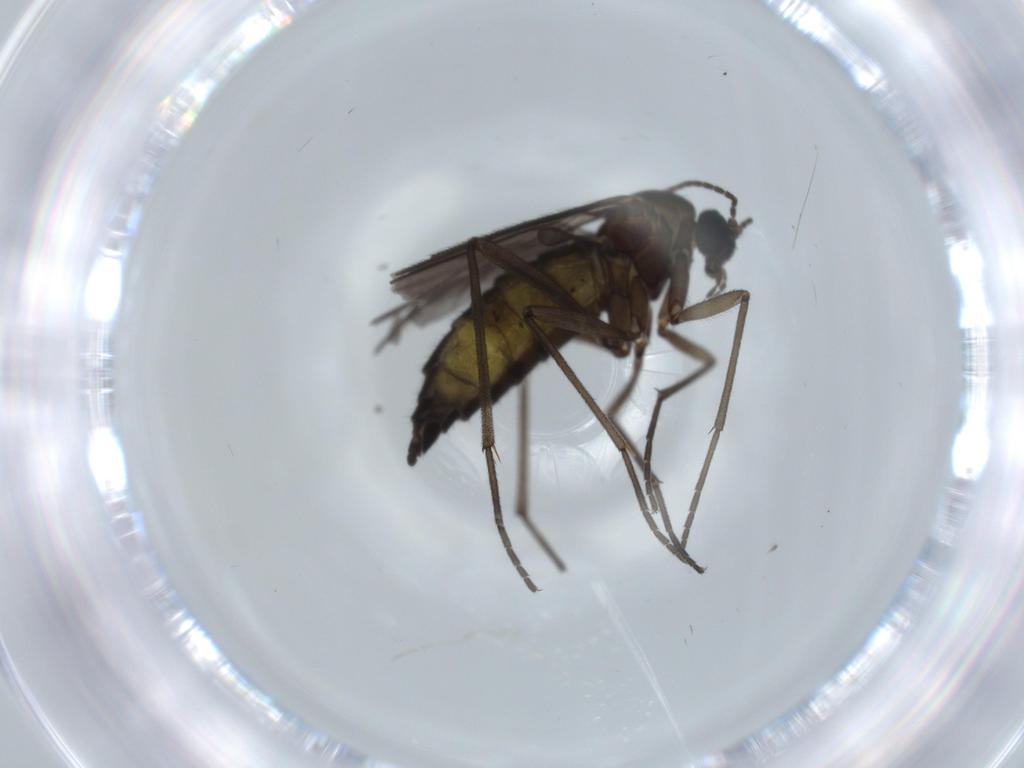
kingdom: Animalia
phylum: Arthropoda
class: Insecta
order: Diptera
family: Sciaridae
